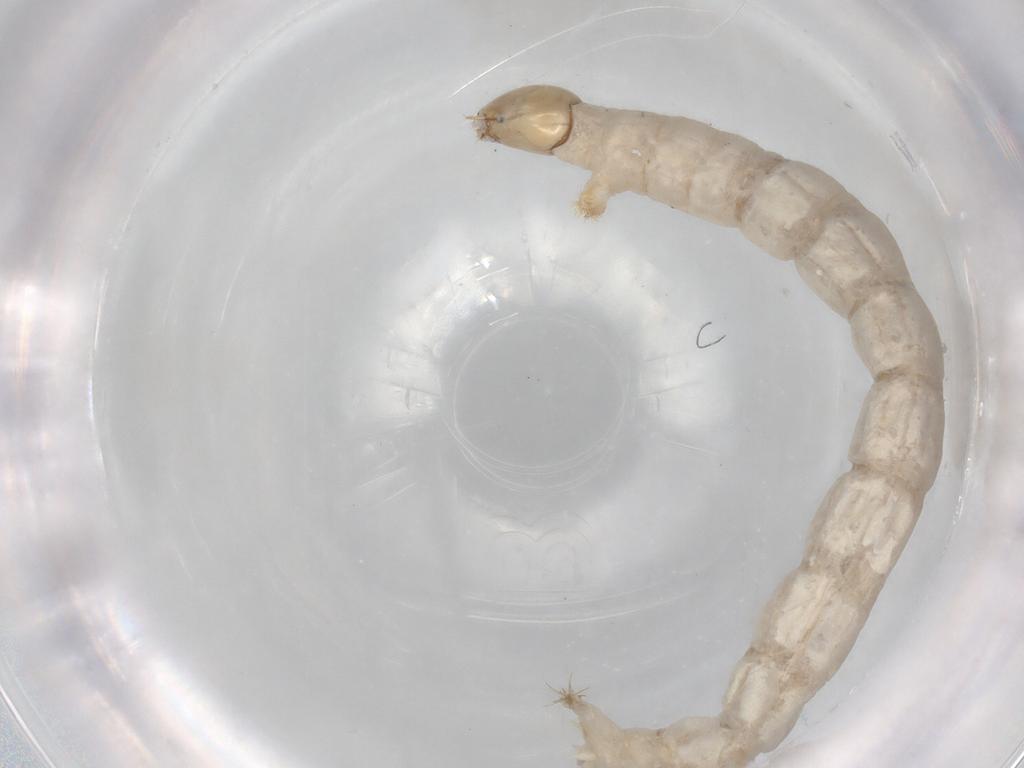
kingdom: Animalia
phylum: Arthropoda
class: Insecta
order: Diptera
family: Chironomidae
